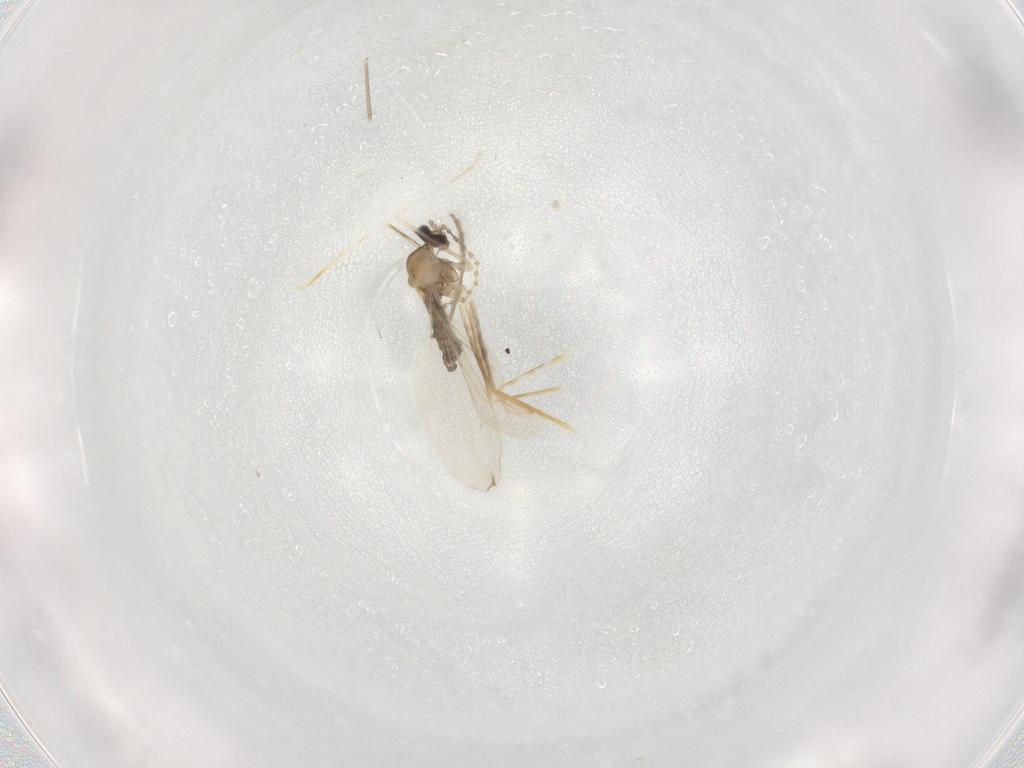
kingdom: Animalia
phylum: Arthropoda
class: Insecta
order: Diptera
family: Cecidomyiidae
